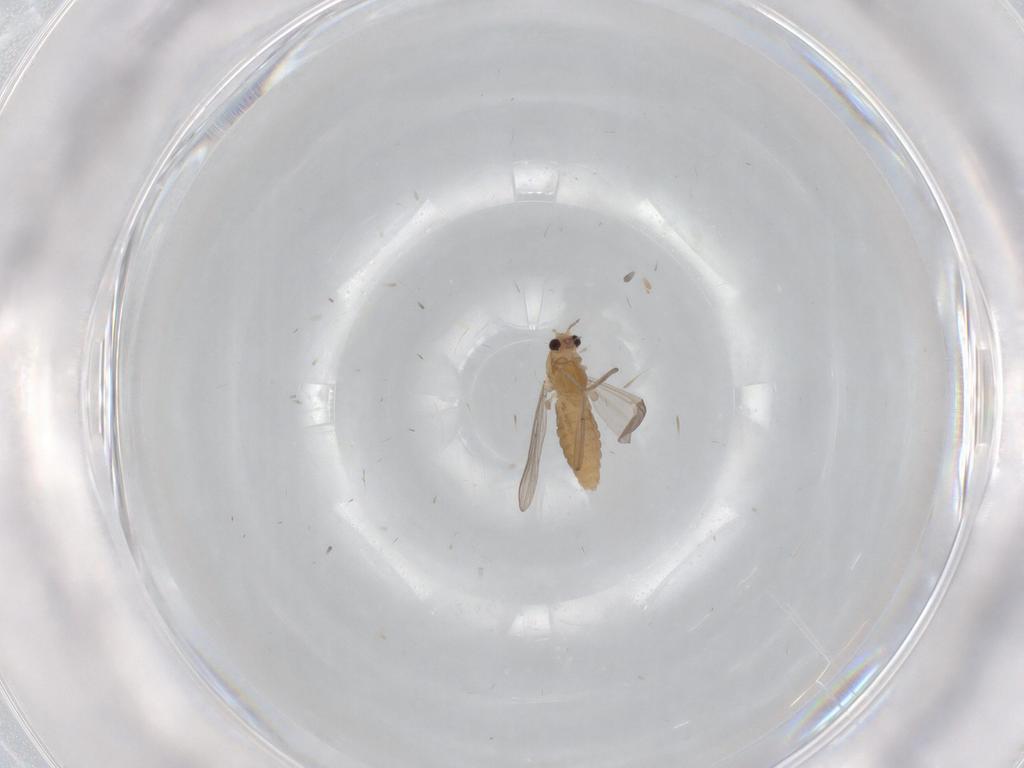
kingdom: Animalia
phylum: Arthropoda
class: Insecta
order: Diptera
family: Chironomidae
